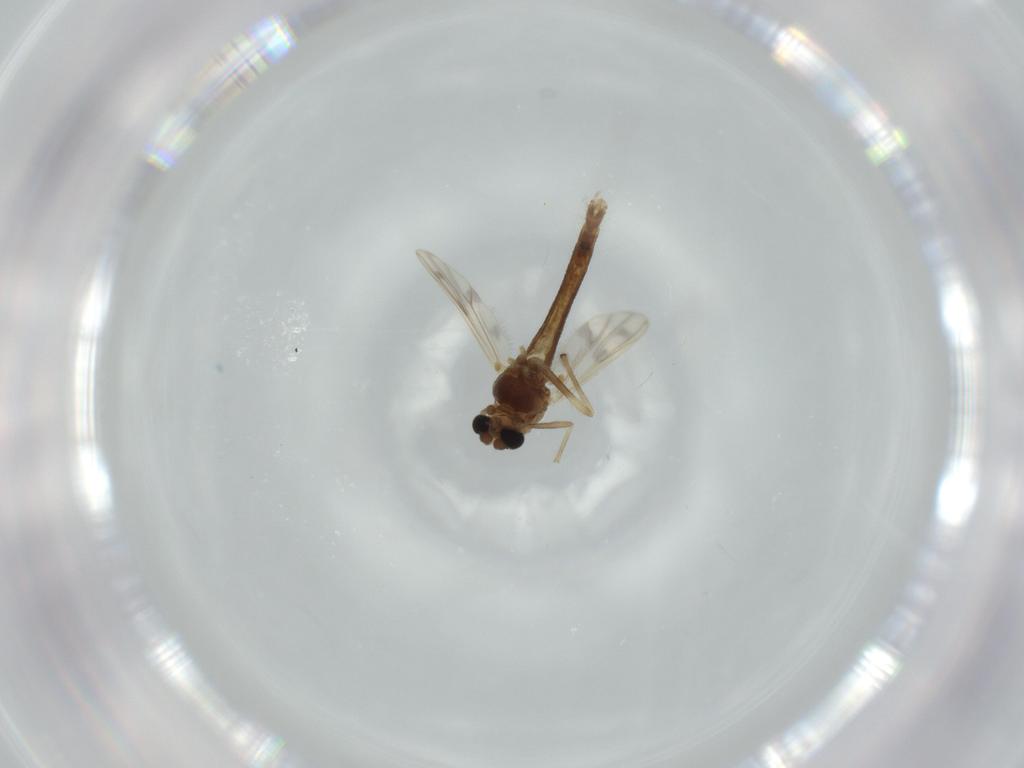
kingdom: Animalia
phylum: Arthropoda
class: Insecta
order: Diptera
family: Chironomidae
